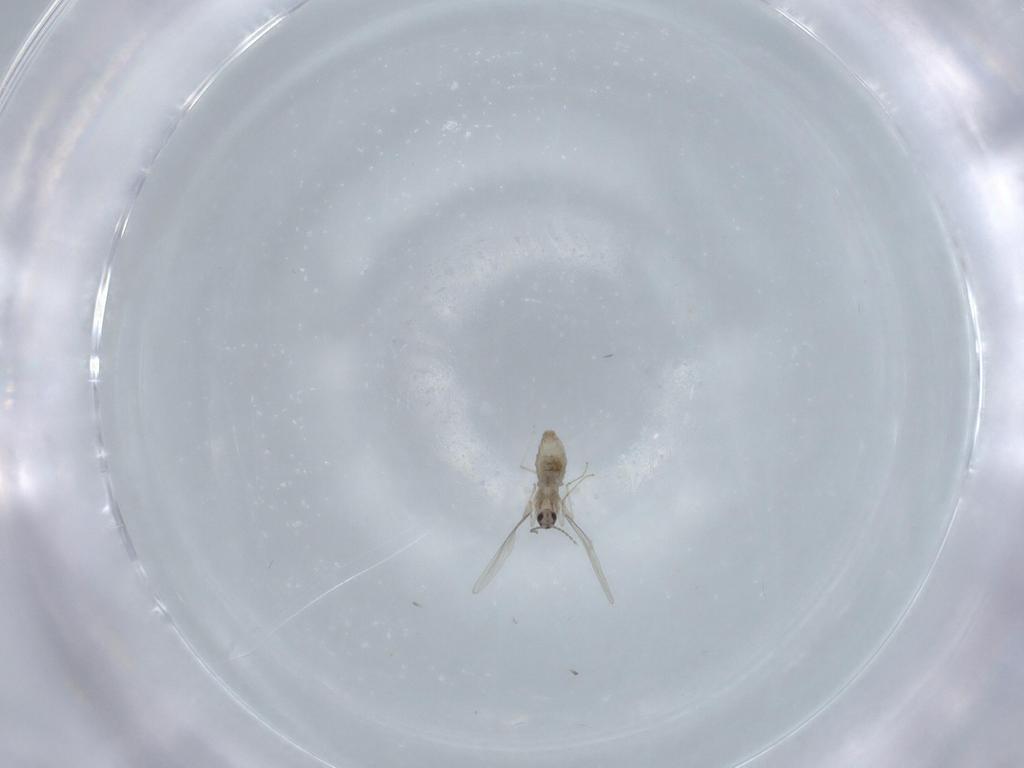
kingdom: Animalia
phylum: Arthropoda
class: Insecta
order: Diptera
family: Cecidomyiidae
